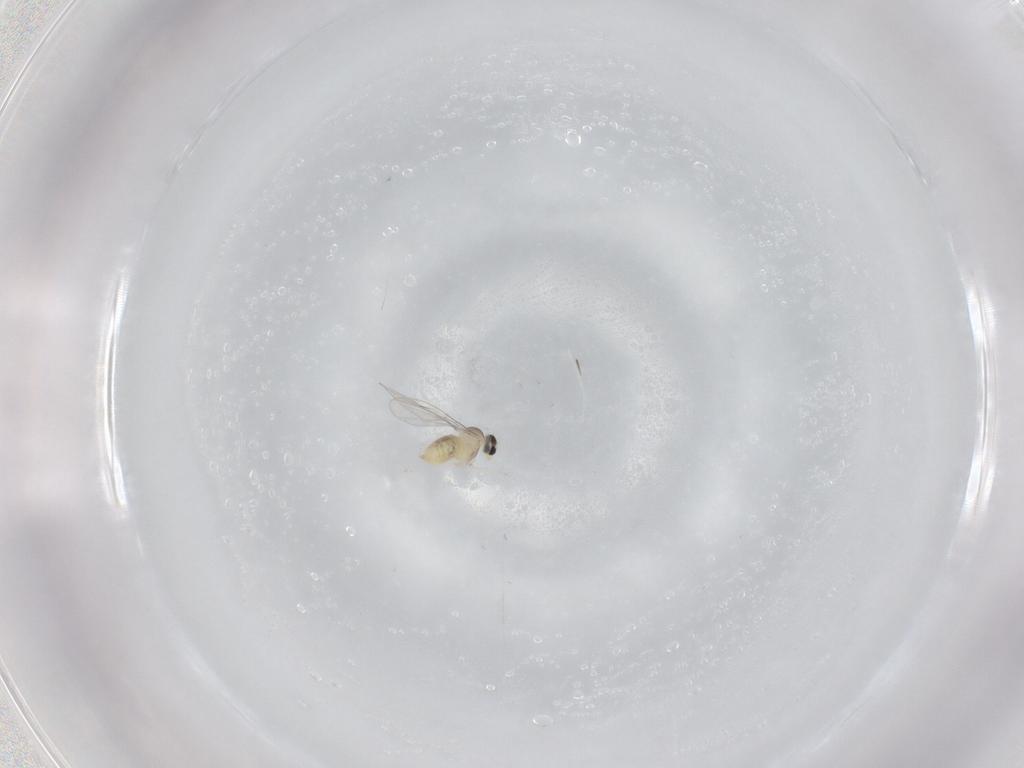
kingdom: Animalia
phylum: Arthropoda
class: Insecta
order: Diptera
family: Cecidomyiidae
